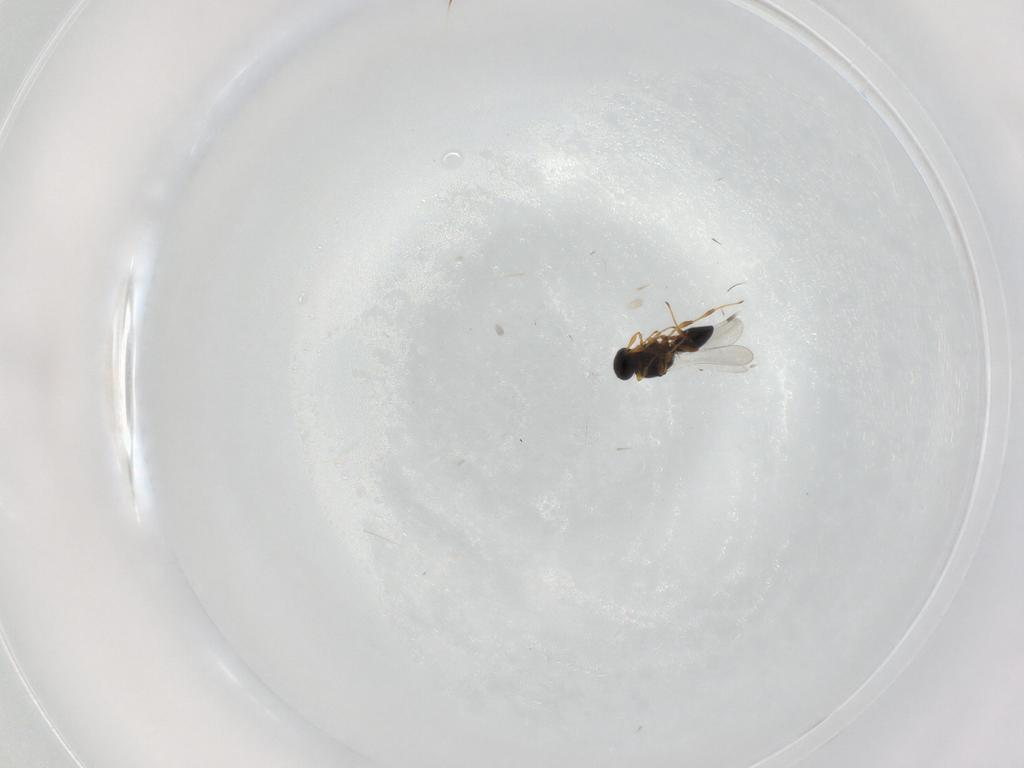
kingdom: Animalia
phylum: Arthropoda
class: Insecta
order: Hymenoptera
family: Platygastridae
